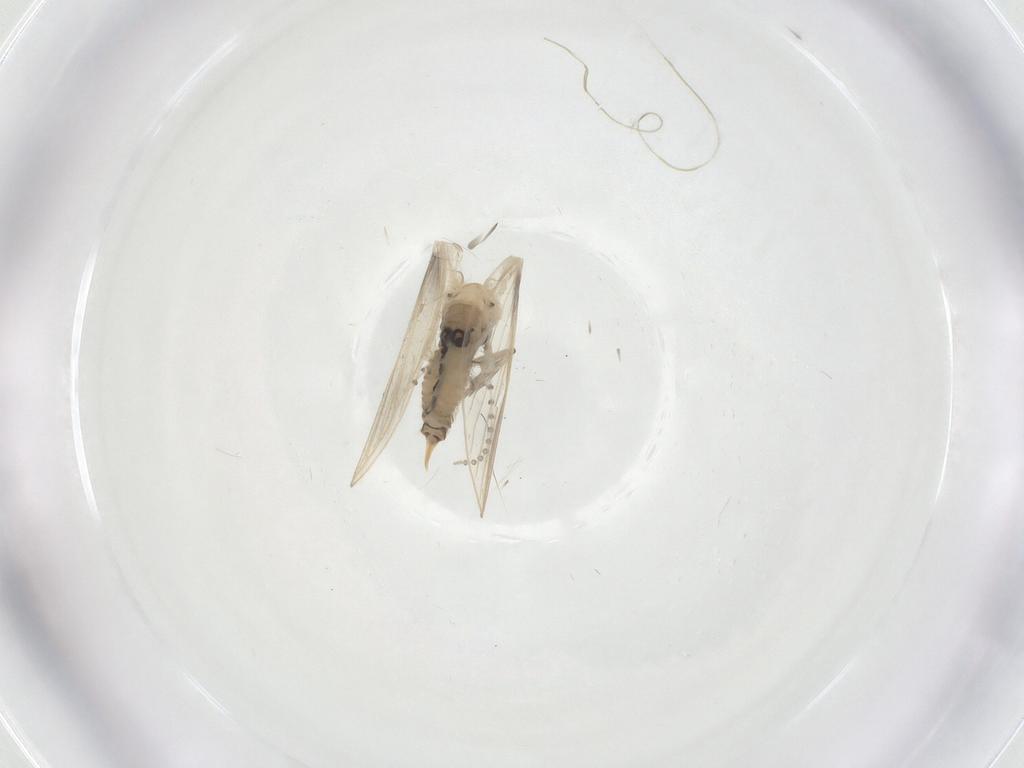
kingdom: Animalia
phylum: Arthropoda
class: Insecta
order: Diptera
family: Psychodidae
